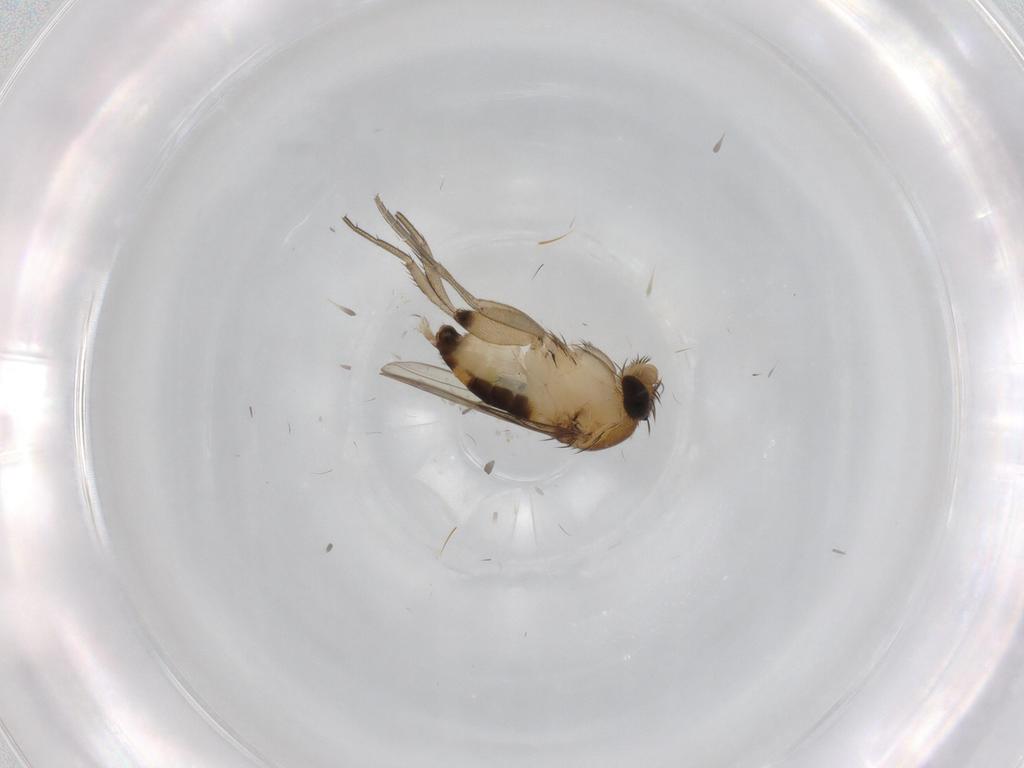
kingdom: Animalia
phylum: Arthropoda
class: Insecta
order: Diptera
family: Phoridae
